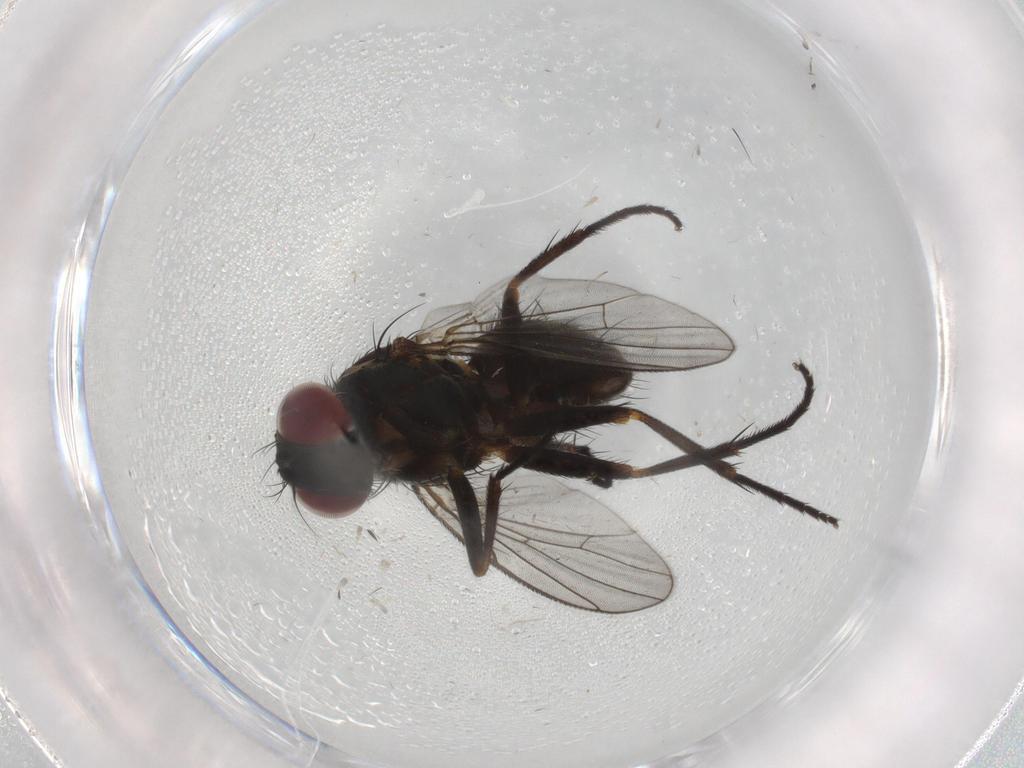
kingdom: Animalia
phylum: Arthropoda
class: Insecta
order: Diptera
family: Muscidae
